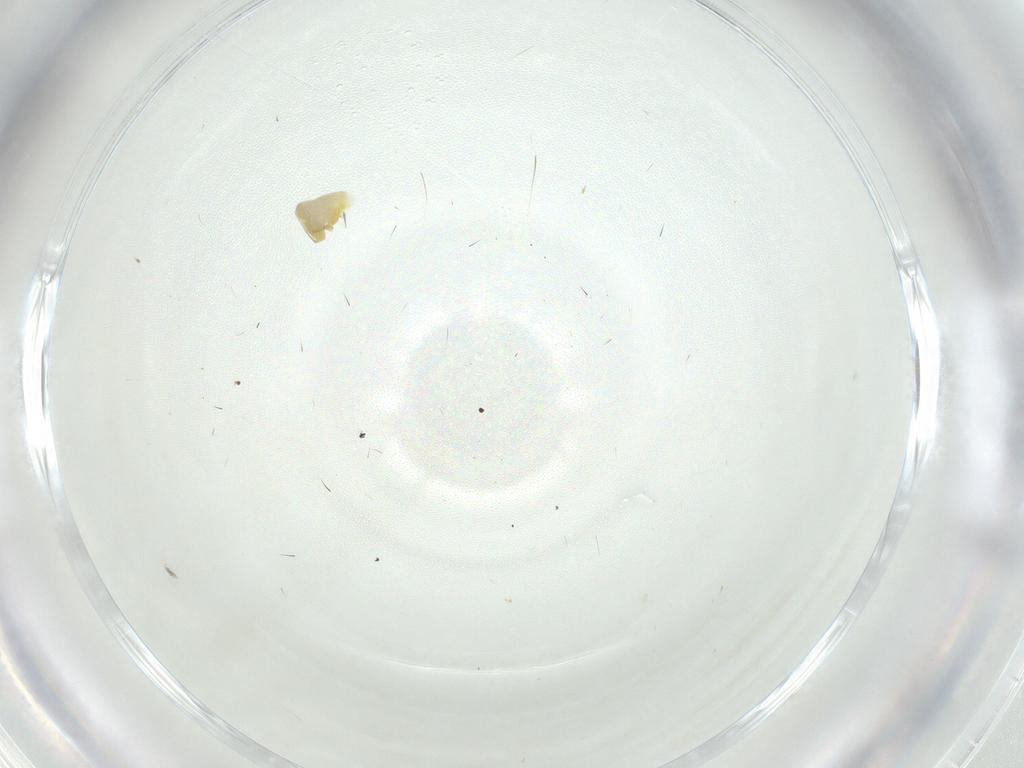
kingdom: Animalia
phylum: Arthropoda
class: Insecta
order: Hemiptera
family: Cicadellidae
